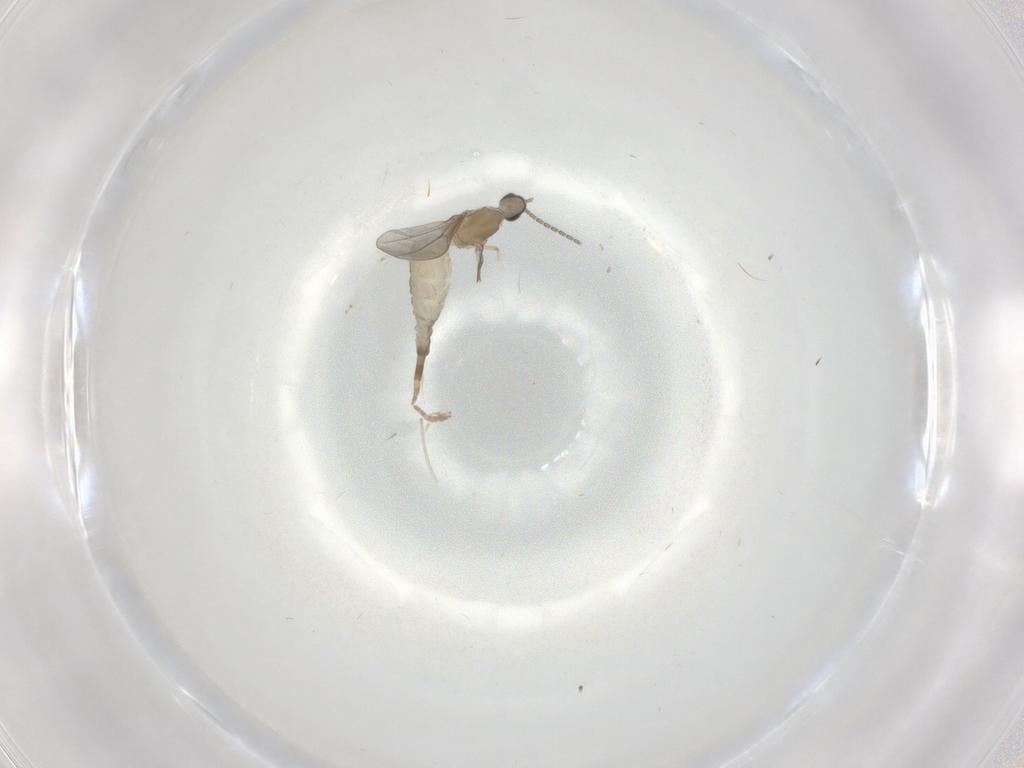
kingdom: Animalia
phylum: Arthropoda
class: Insecta
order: Diptera
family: Cecidomyiidae
